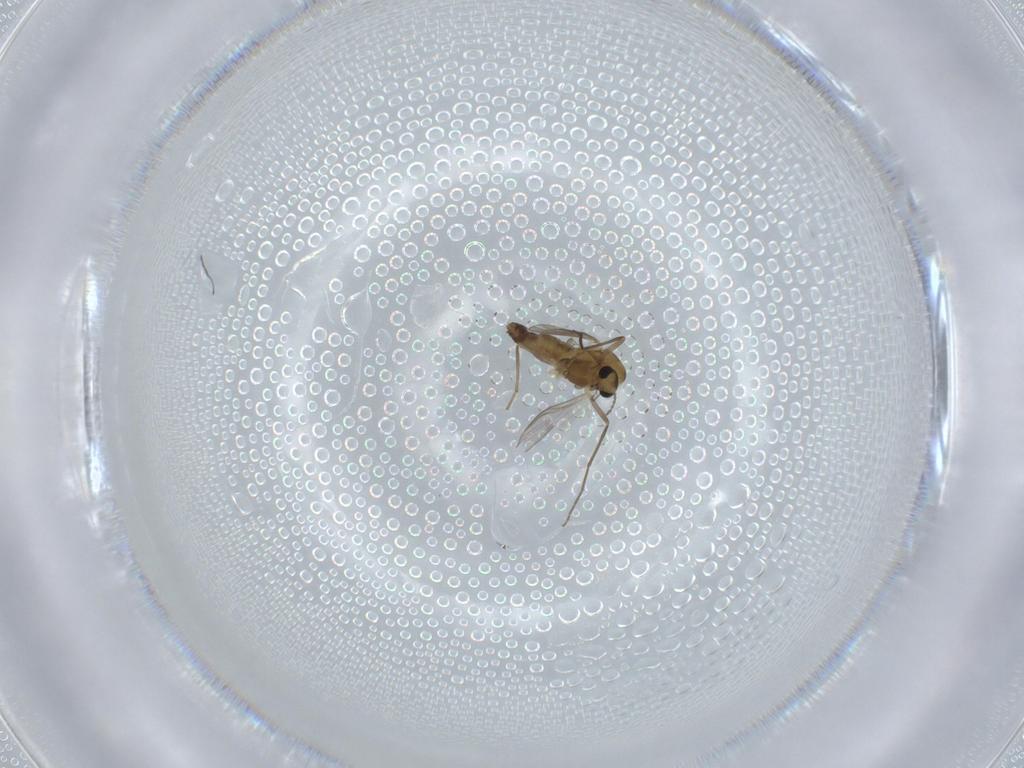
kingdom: Animalia
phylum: Arthropoda
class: Insecta
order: Diptera
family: Chironomidae
